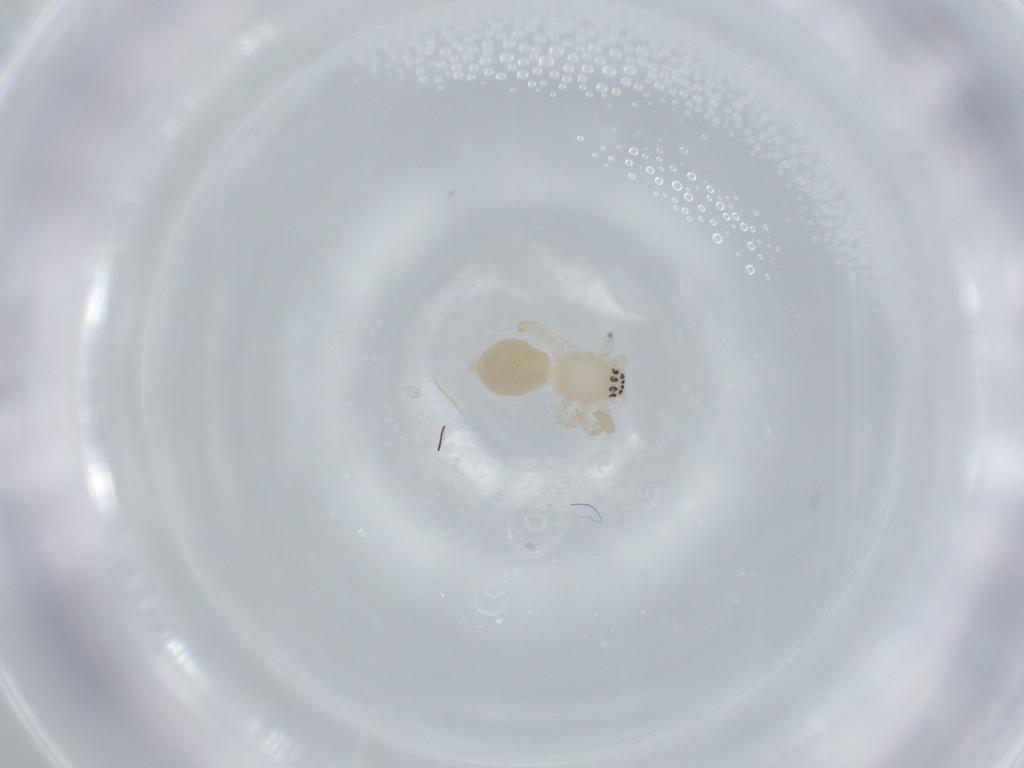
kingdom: Animalia
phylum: Arthropoda
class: Arachnida
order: Araneae
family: Anyphaenidae
